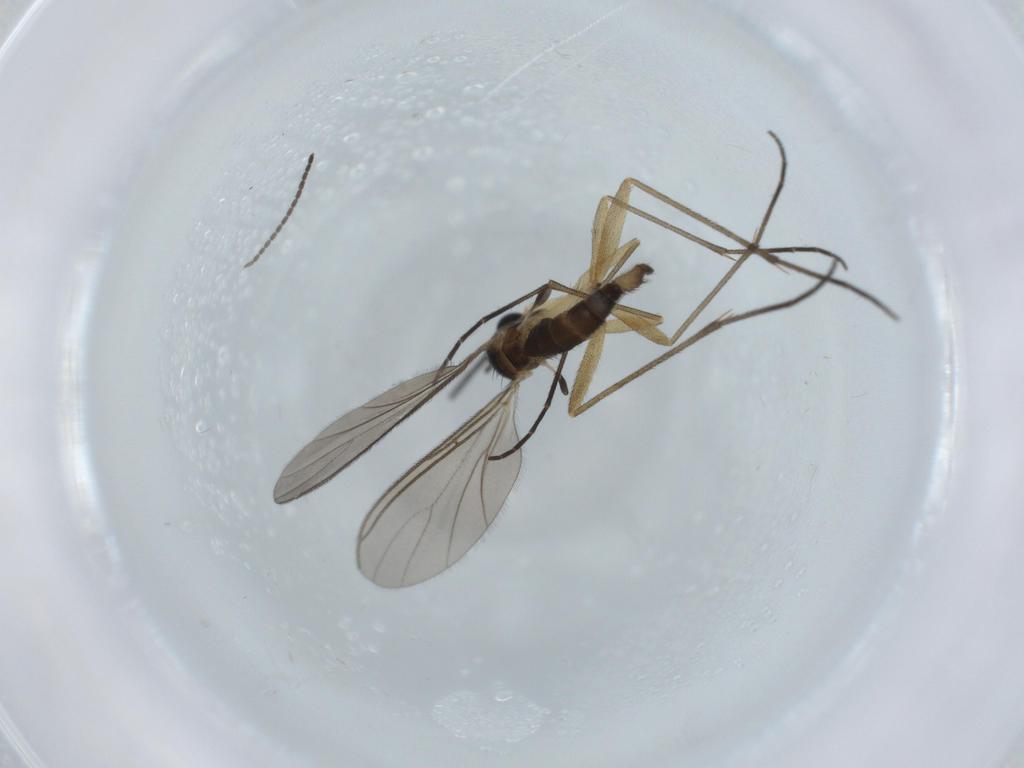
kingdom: Animalia
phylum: Arthropoda
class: Insecta
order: Diptera
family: Sciaridae
